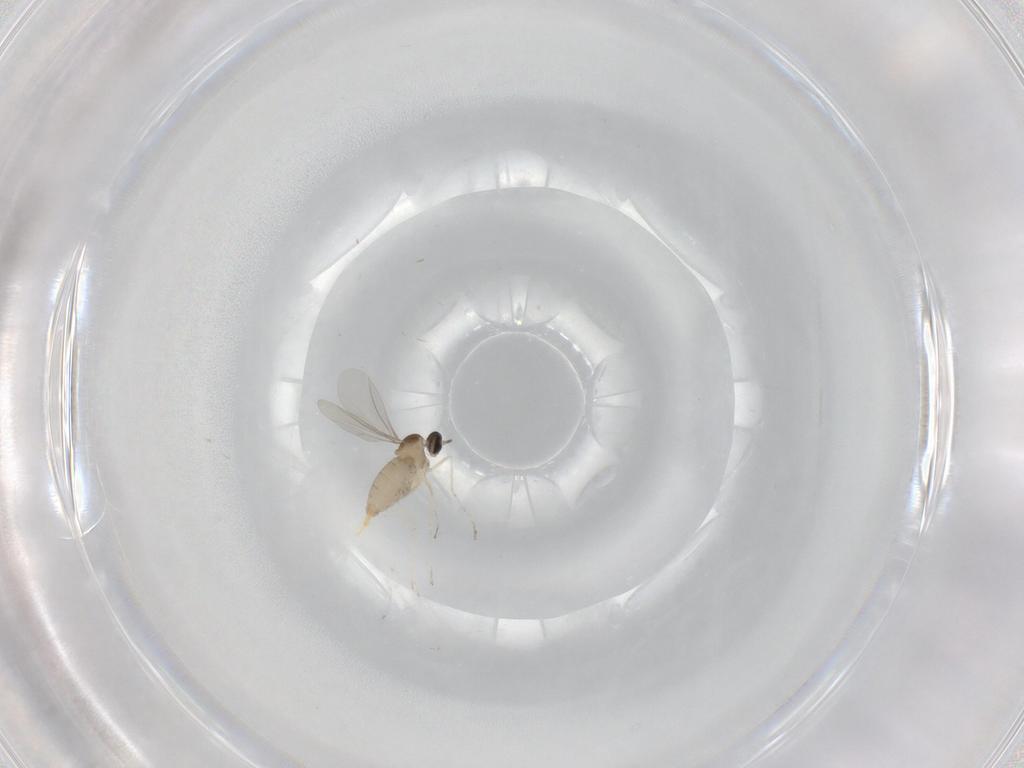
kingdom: Animalia
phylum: Arthropoda
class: Insecta
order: Diptera
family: Cecidomyiidae
